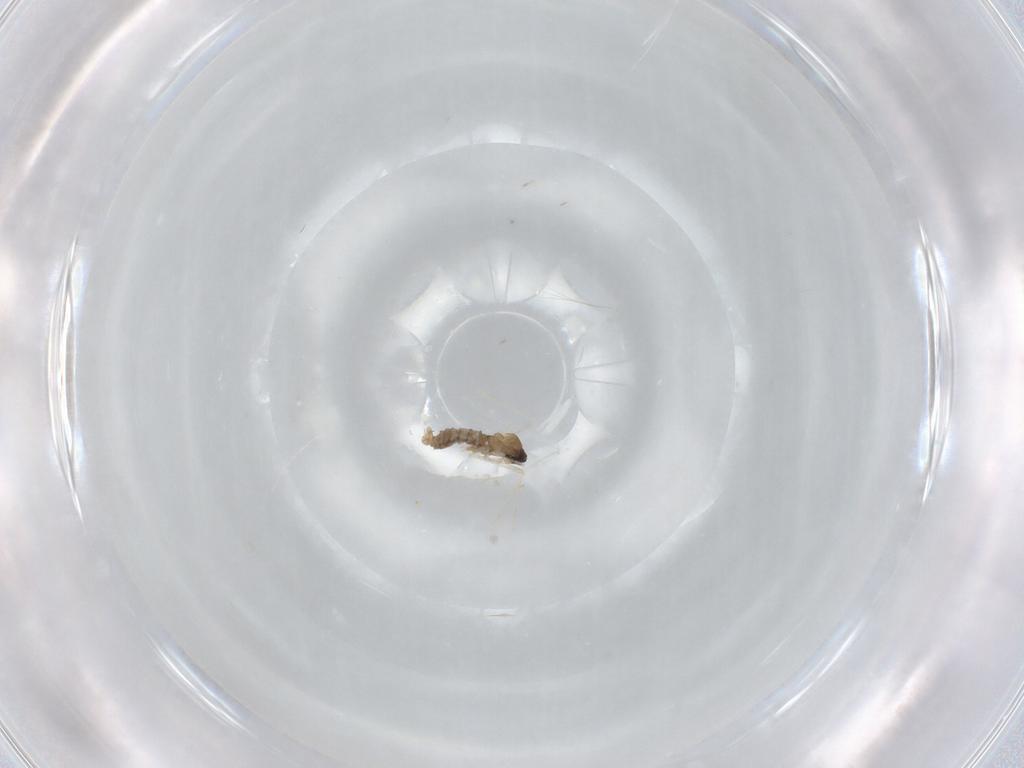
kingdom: Animalia
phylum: Arthropoda
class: Insecta
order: Diptera
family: Cecidomyiidae
